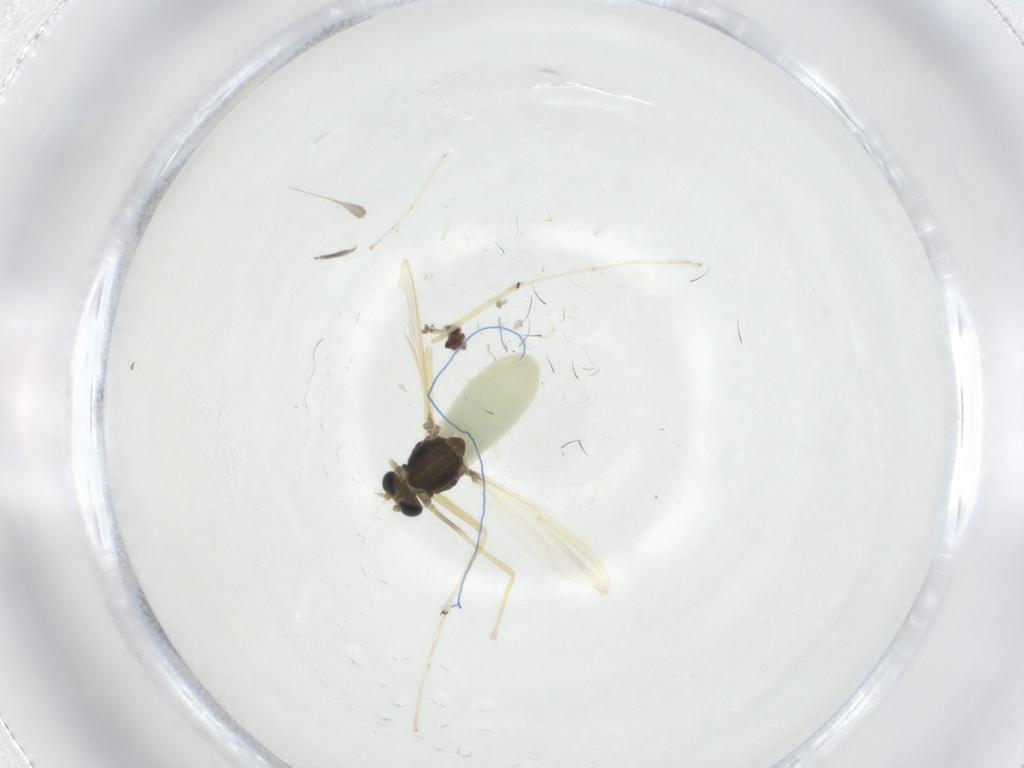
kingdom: Animalia
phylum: Arthropoda
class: Insecta
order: Diptera
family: Chironomidae
